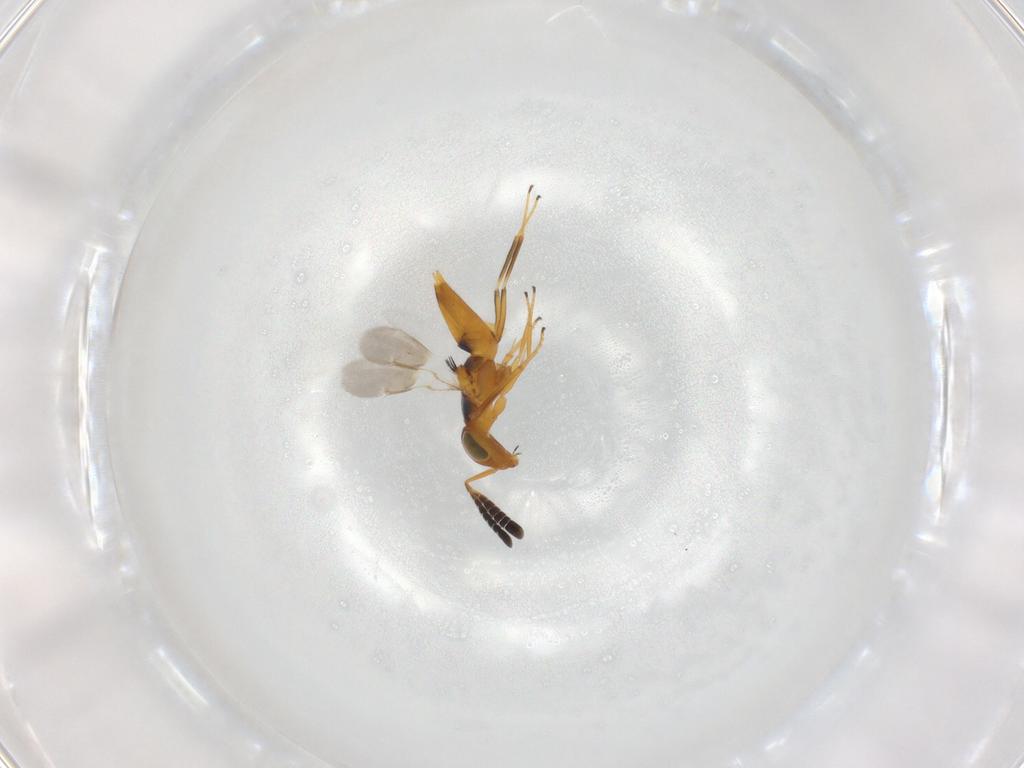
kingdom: Animalia
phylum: Arthropoda
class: Insecta
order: Hymenoptera
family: Encyrtidae
